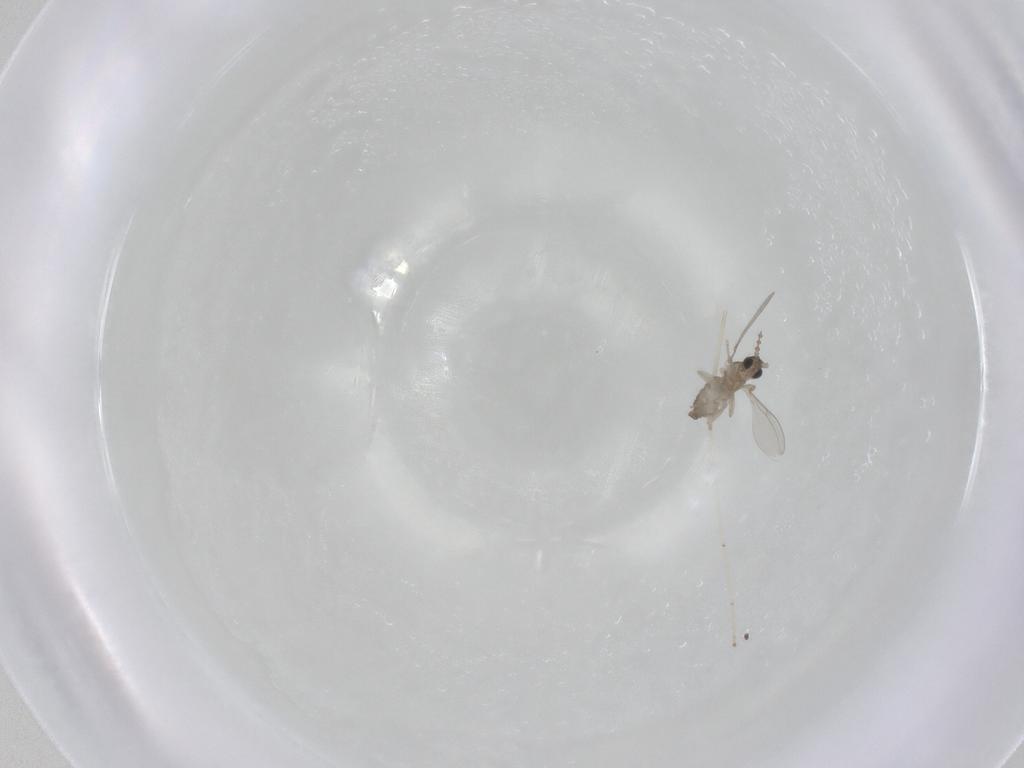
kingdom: Animalia
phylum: Arthropoda
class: Insecta
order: Diptera
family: Cecidomyiidae
